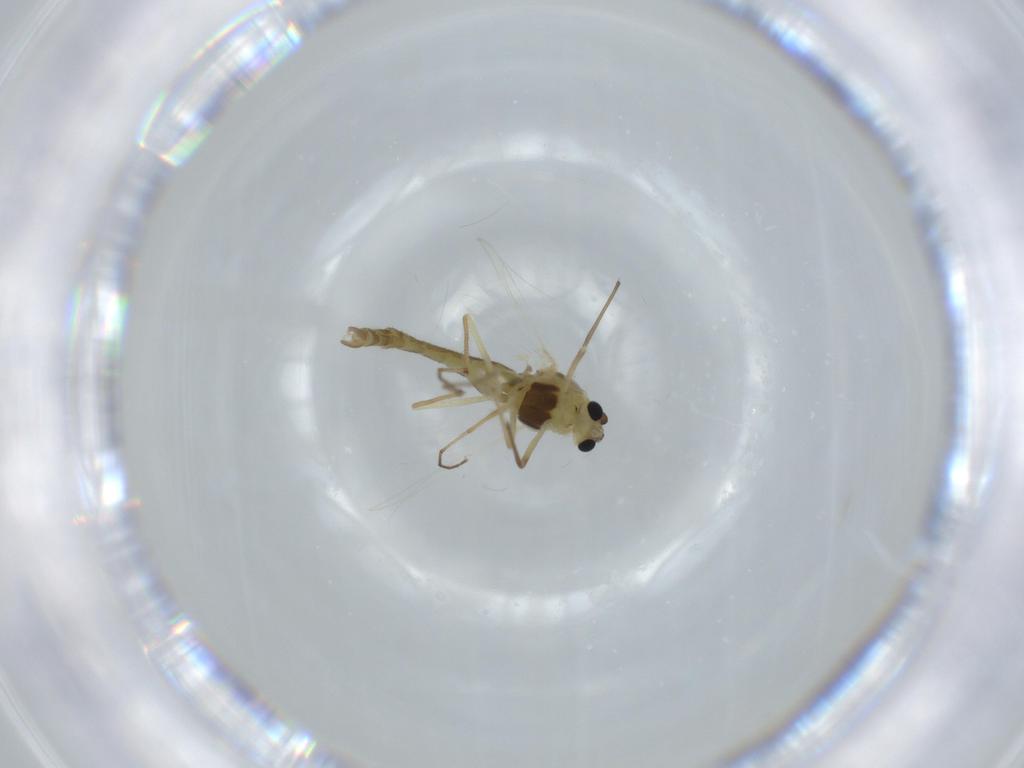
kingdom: Animalia
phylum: Arthropoda
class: Insecta
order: Diptera
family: Chironomidae
